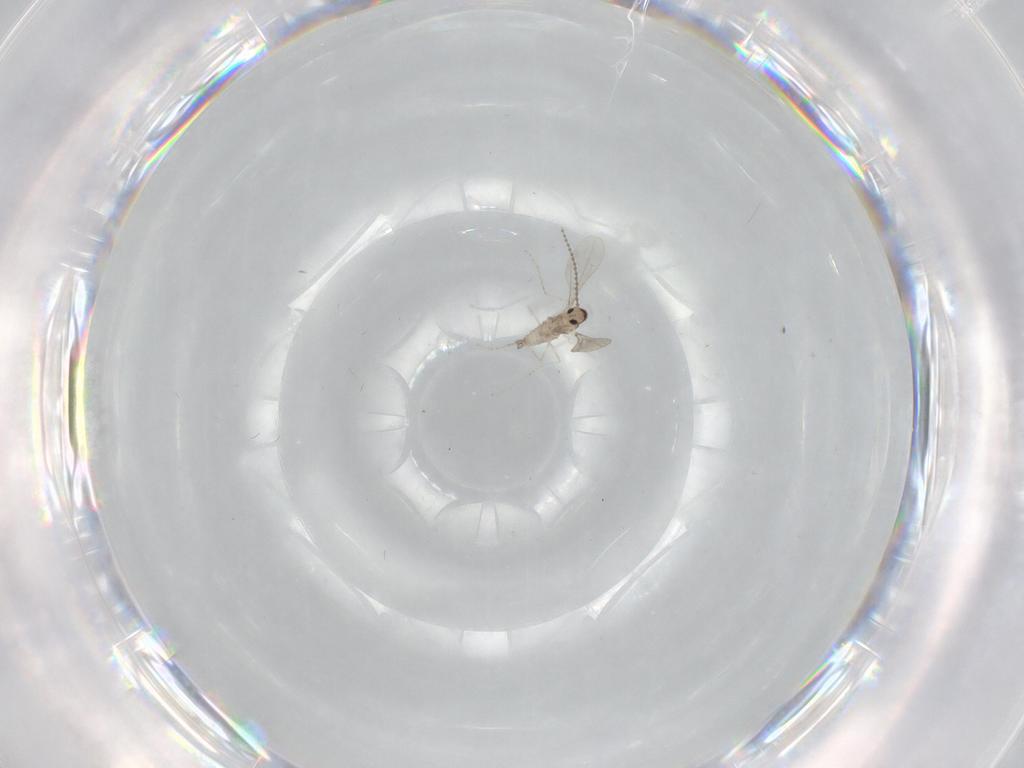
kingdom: Animalia
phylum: Arthropoda
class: Insecta
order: Diptera
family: Cecidomyiidae
